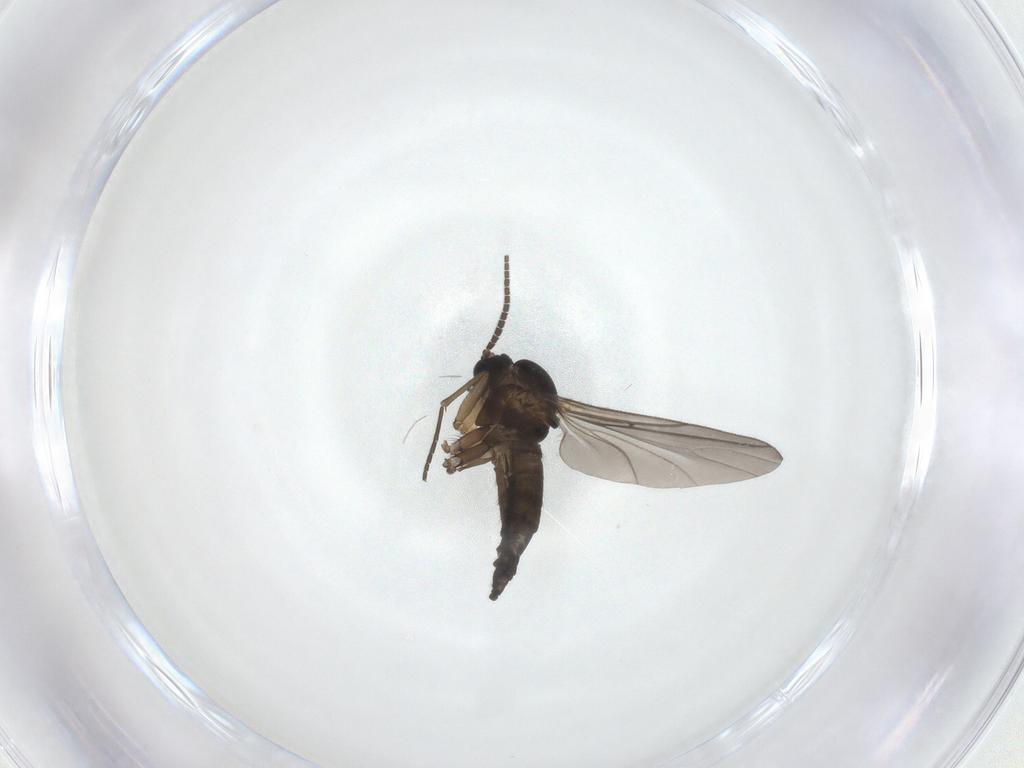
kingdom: Animalia
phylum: Arthropoda
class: Insecta
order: Diptera
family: Sciaridae
